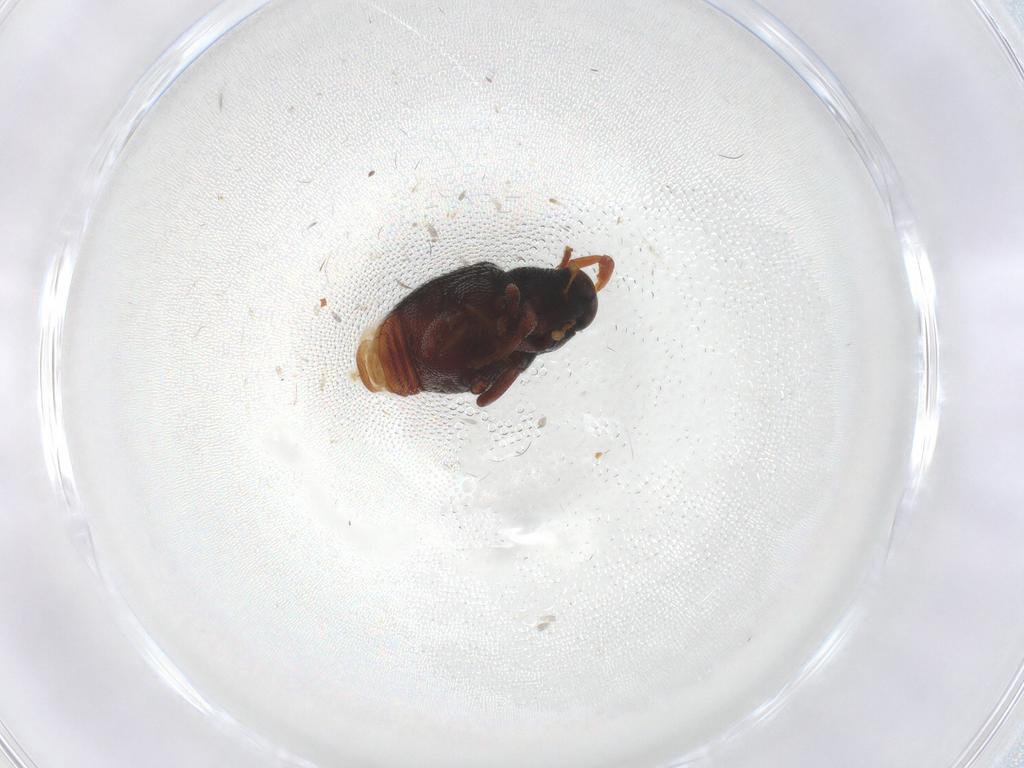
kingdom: Animalia
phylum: Arthropoda
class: Insecta
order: Coleoptera
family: Curculionidae
